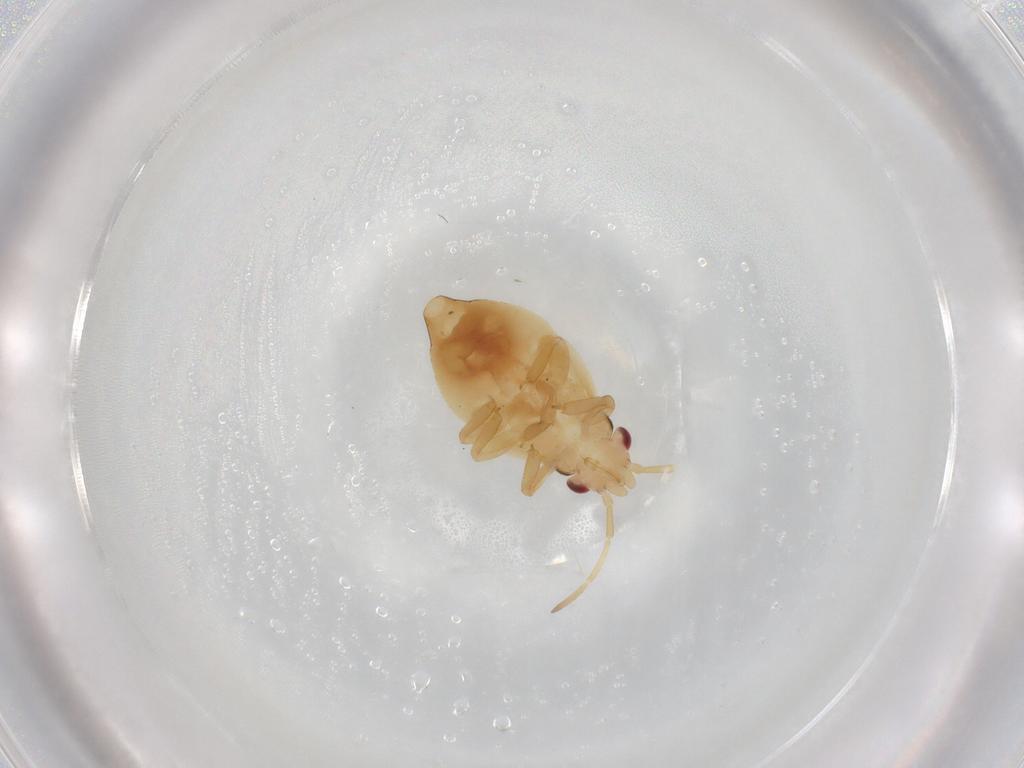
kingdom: Animalia
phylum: Arthropoda
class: Insecta
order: Hemiptera
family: Thaumastocoridae
